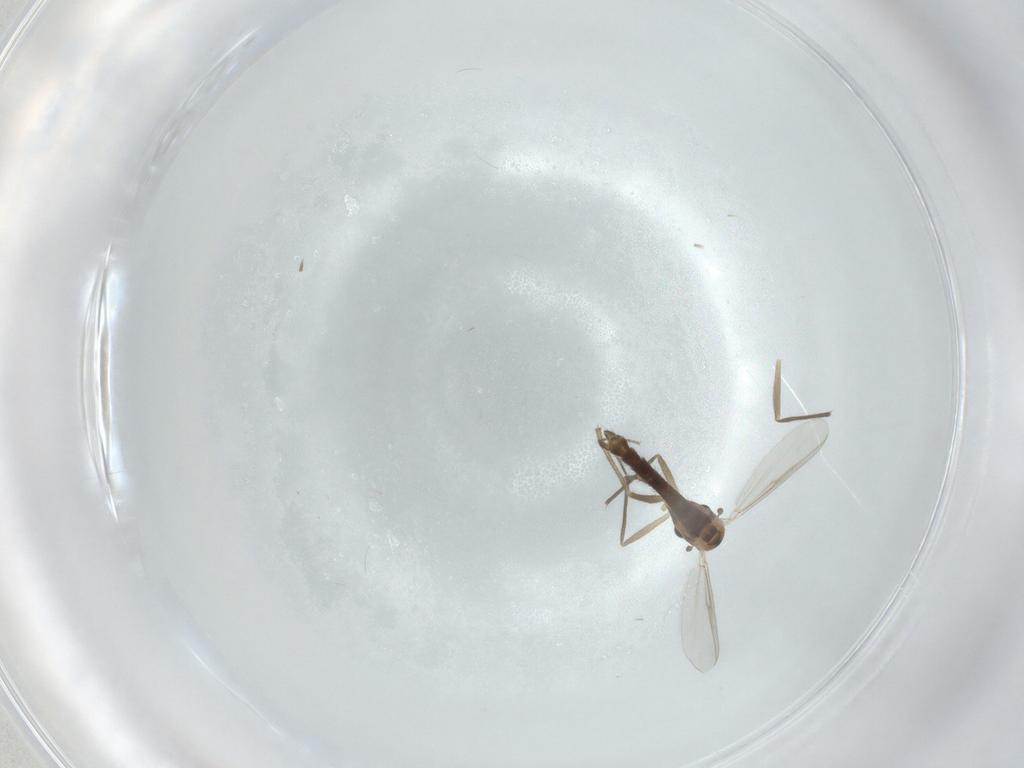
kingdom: Animalia
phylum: Arthropoda
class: Insecta
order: Diptera
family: Chironomidae
